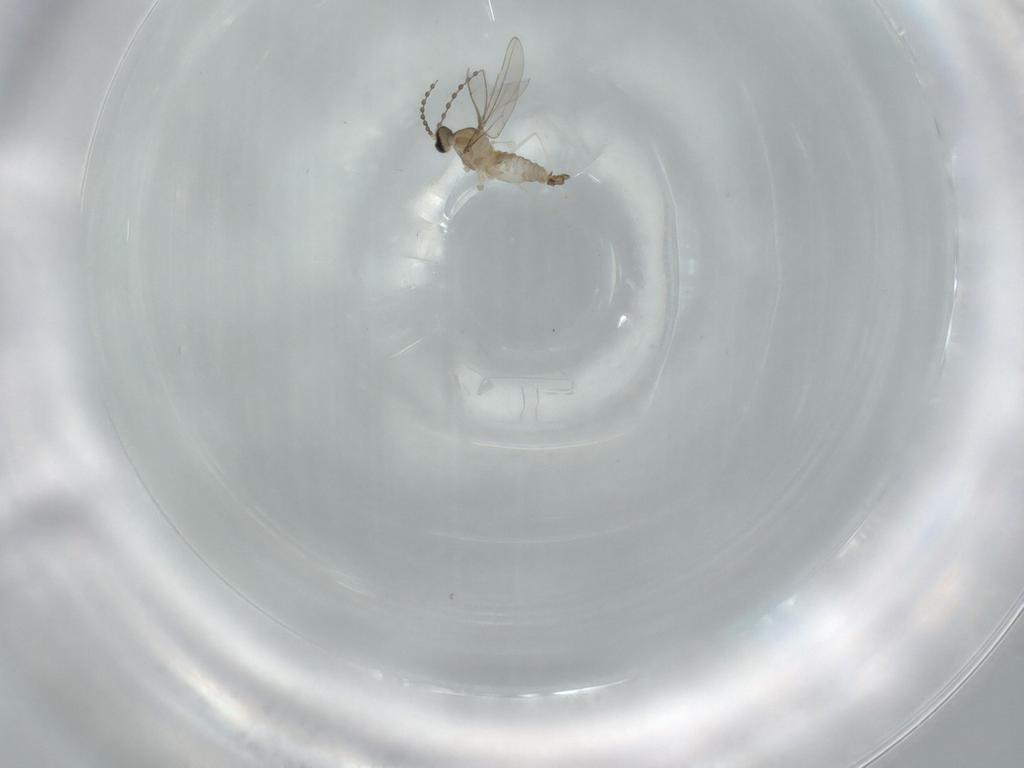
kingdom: Animalia
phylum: Arthropoda
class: Insecta
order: Diptera
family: Cecidomyiidae
